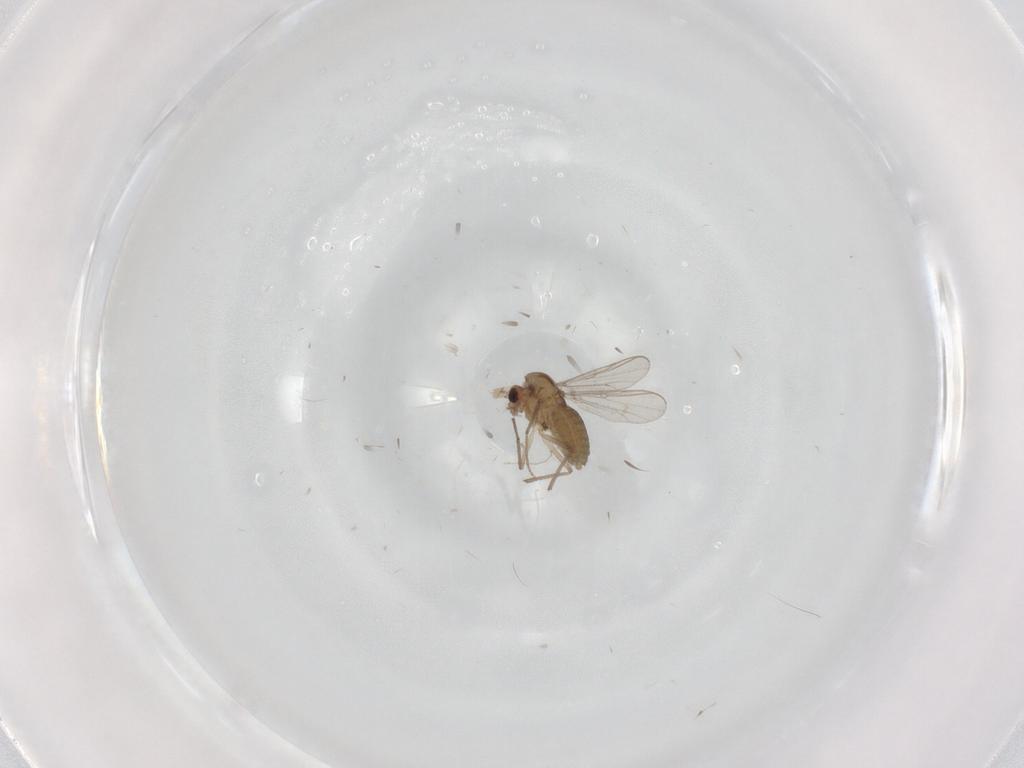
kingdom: Animalia
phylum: Arthropoda
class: Insecta
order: Diptera
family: Chironomidae
